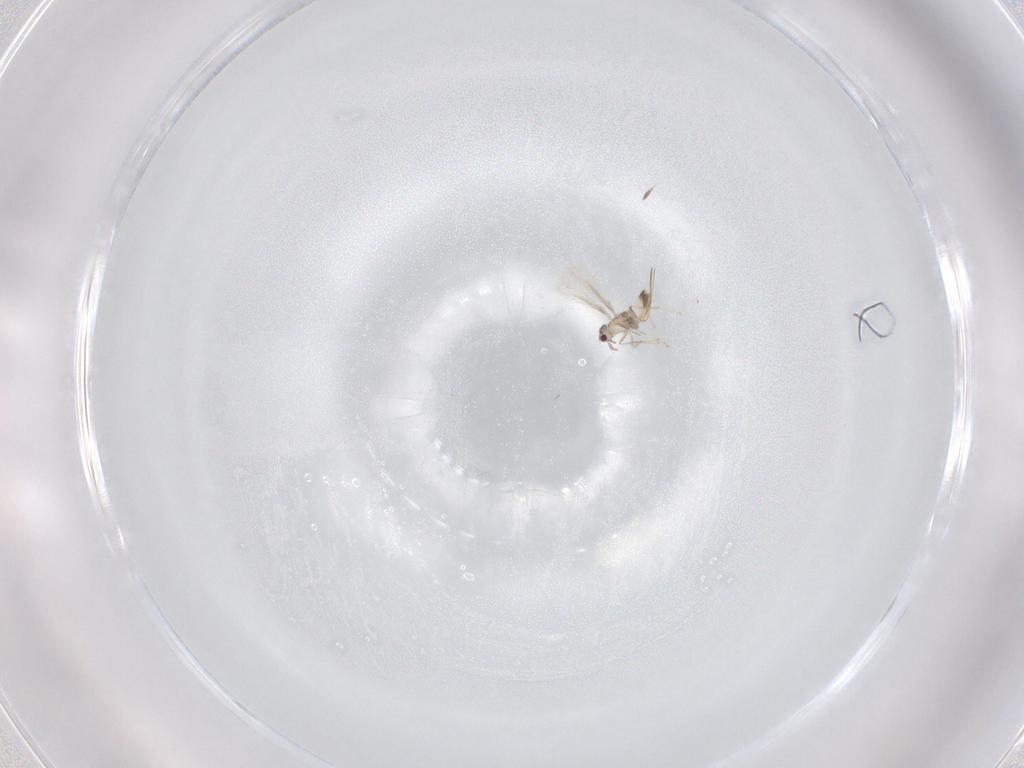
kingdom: Animalia
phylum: Arthropoda
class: Insecta
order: Hymenoptera
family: Mymaridae
